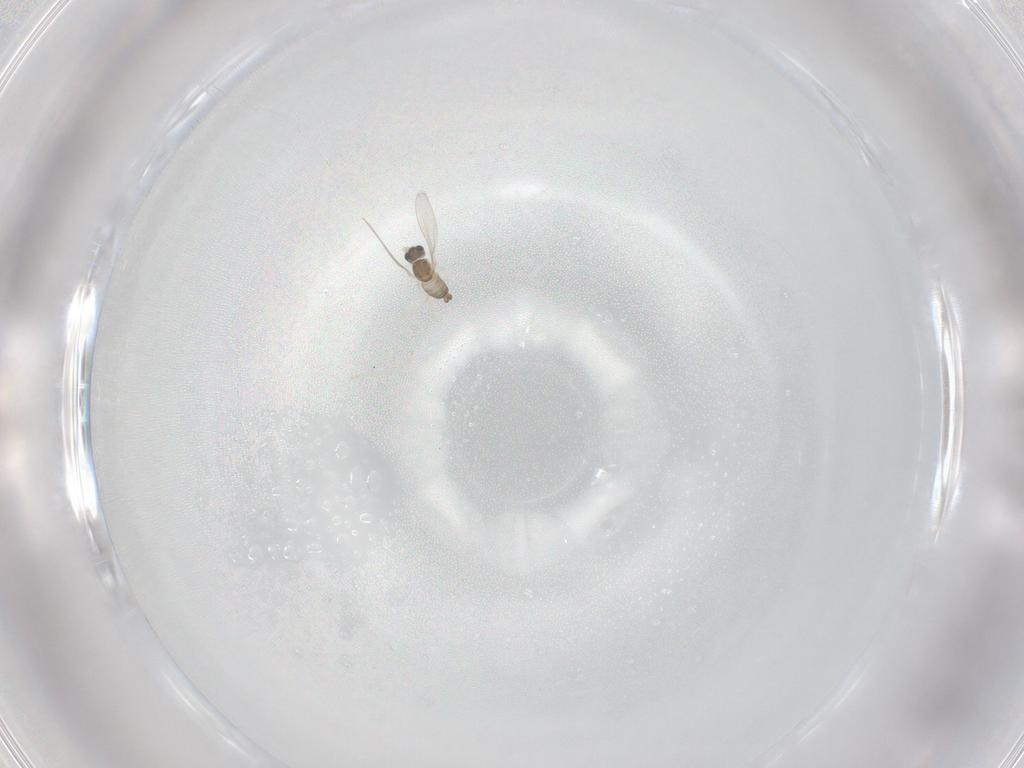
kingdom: Animalia
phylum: Arthropoda
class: Insecta
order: Diptera
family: Cecidomyiidae
